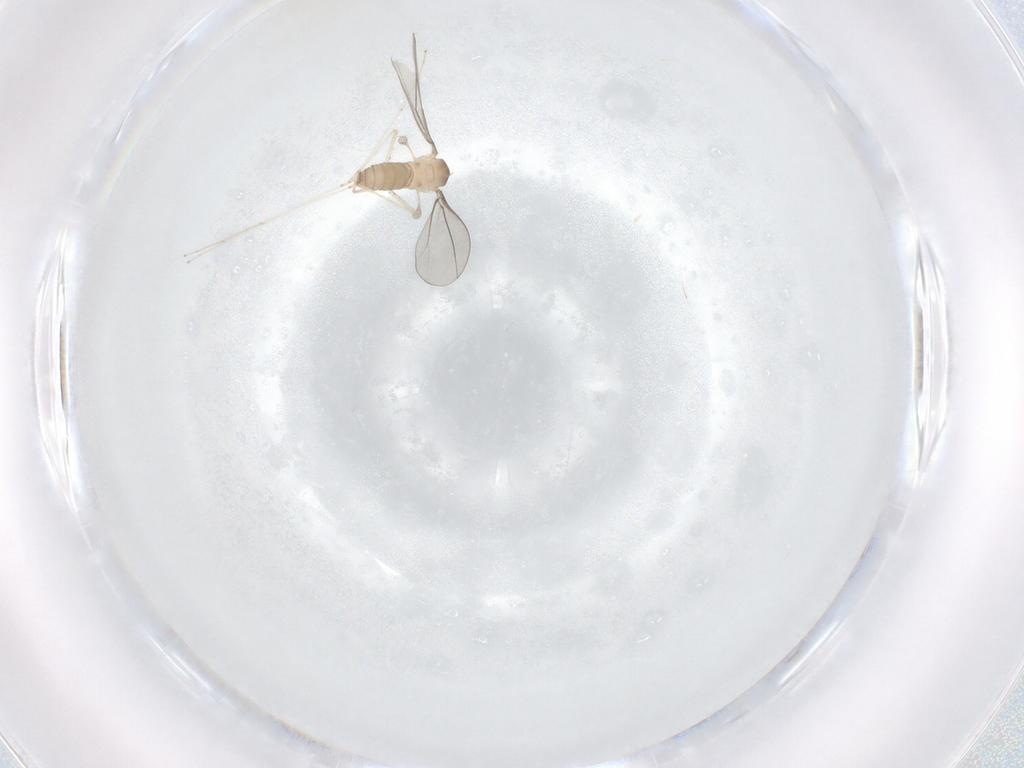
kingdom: Animalia
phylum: Arthropoda
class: Insecta
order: Diptera
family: Cecidomyiidae
